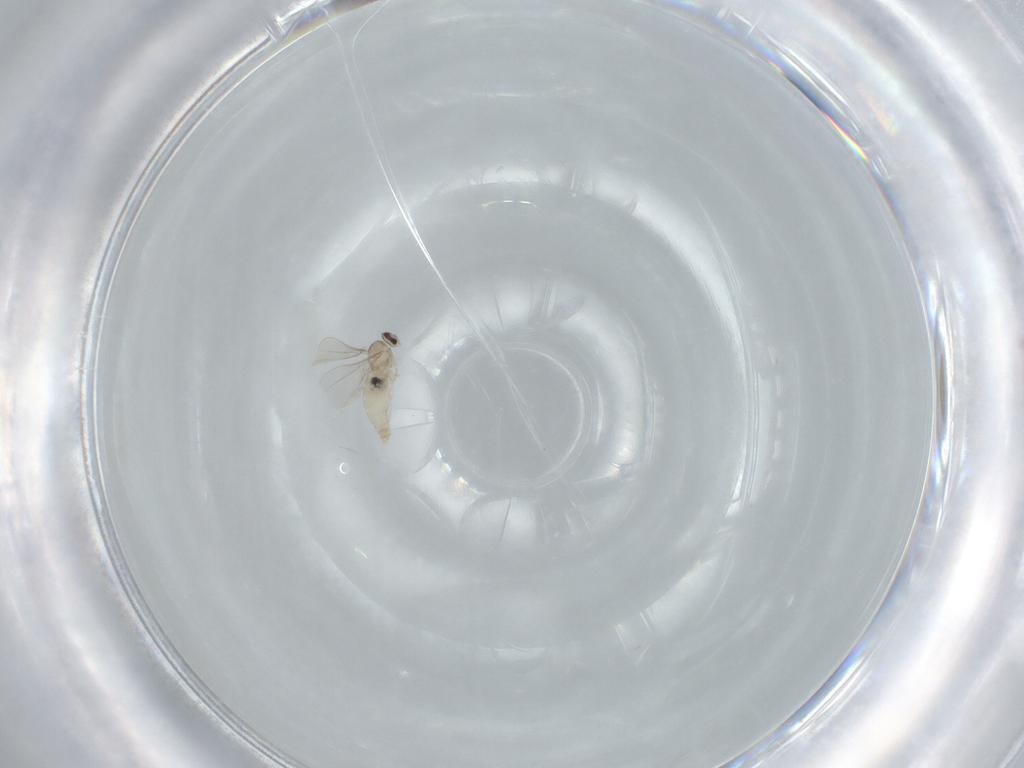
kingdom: Animalia
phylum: Arthropoda
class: Insecta
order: Diptera
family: Cecidomyiidae
